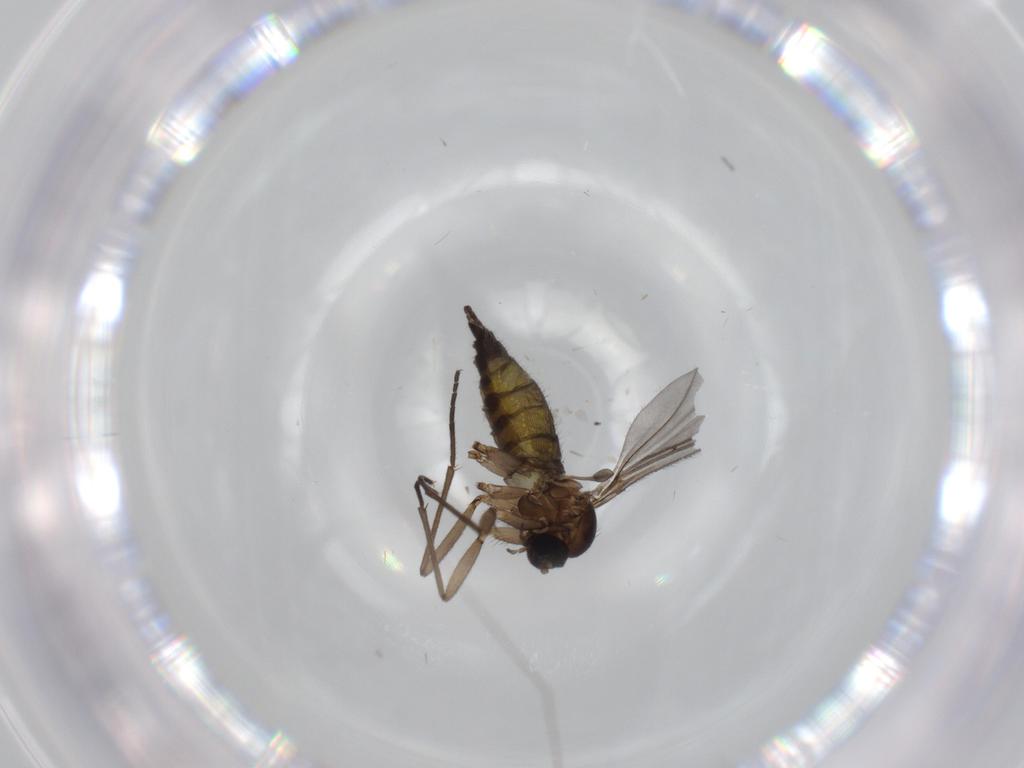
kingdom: Animalia
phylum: Arthropoda
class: Insecta
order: Diptera
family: Sciaridae
